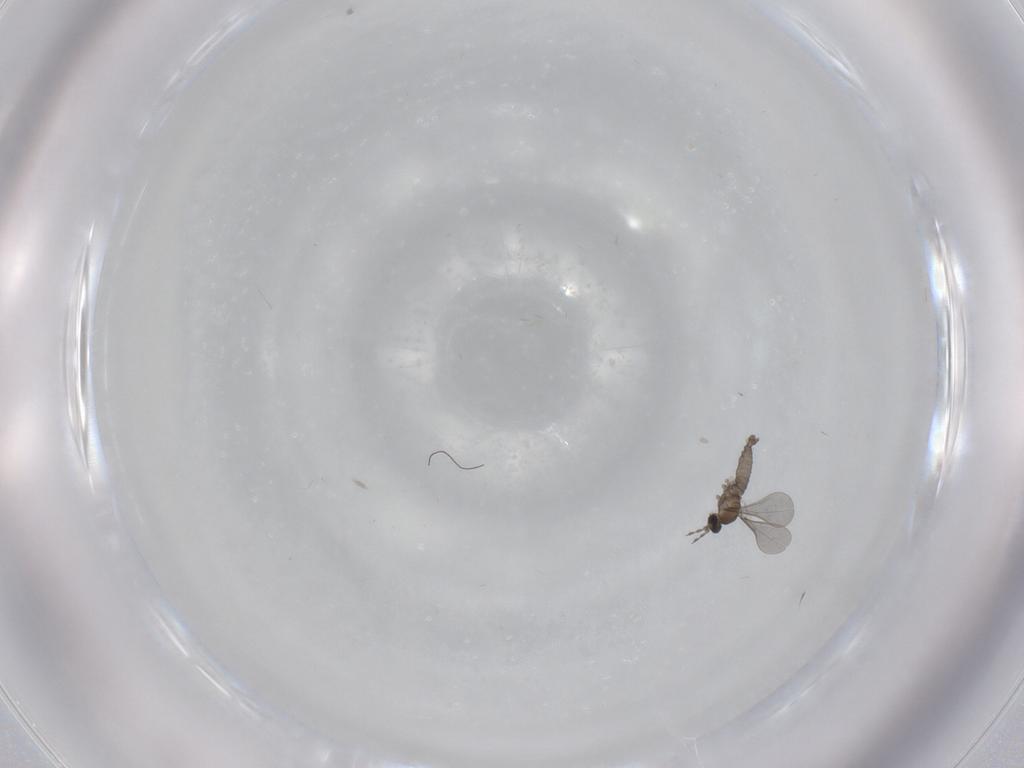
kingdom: Animalia
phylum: Arthropoda
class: Insecta
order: Diptera
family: Cecidomyiidae
